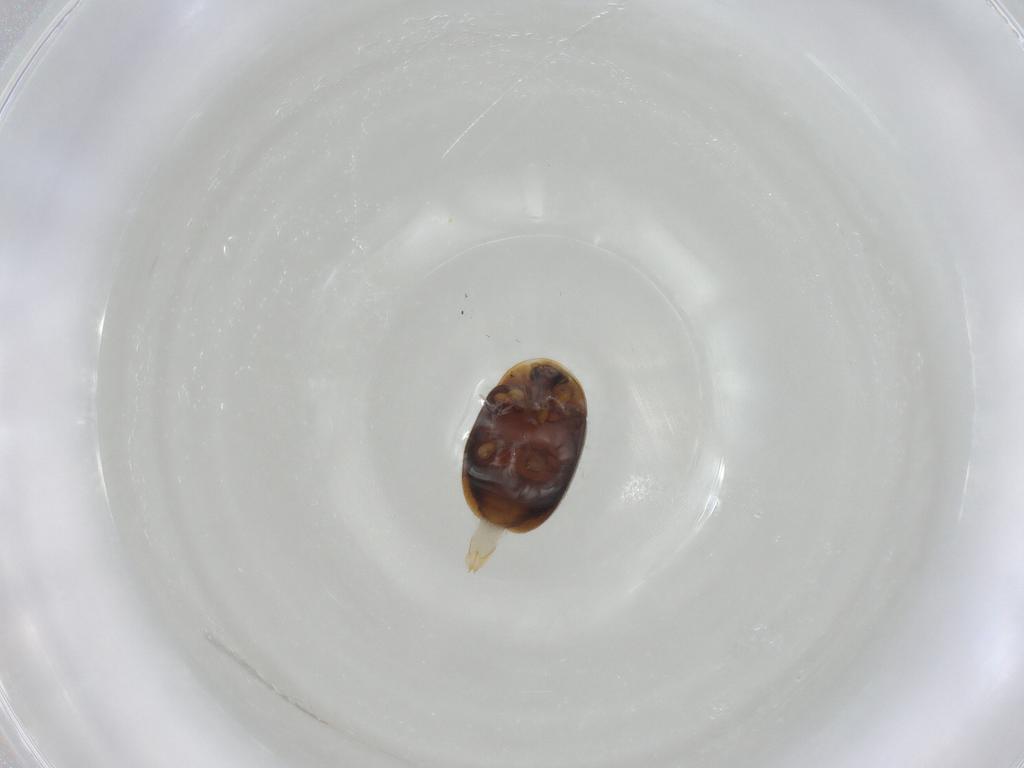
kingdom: Animalia
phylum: Arthropoda
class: Insecta
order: Coleoptera
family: Corylophidae
